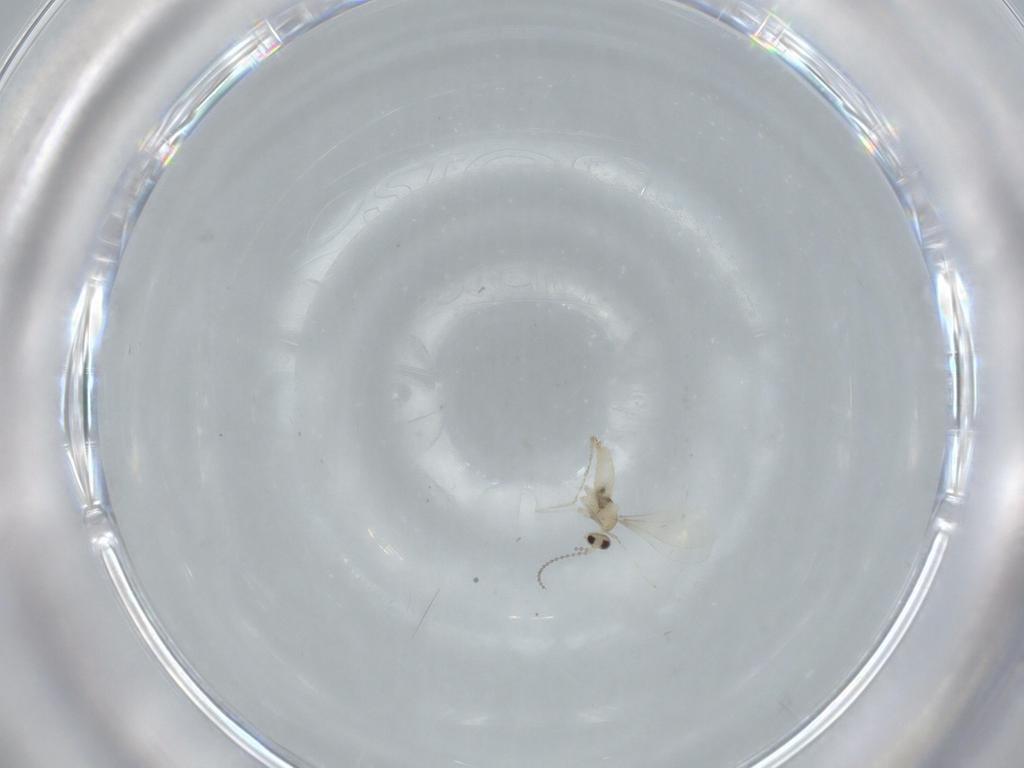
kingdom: Animalia
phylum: Arthropoda
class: Insecta
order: Diptera
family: Cecidomyiidae
